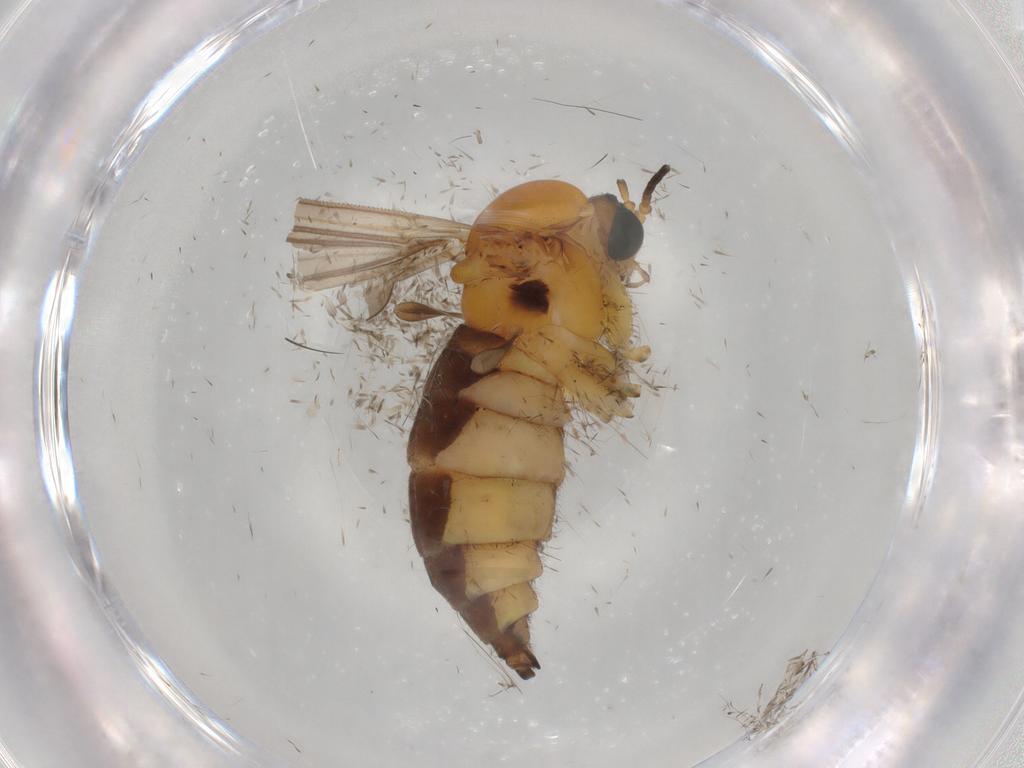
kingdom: Animalia
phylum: Arthropoda
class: Insecta
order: Diptera
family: Sciaridae
